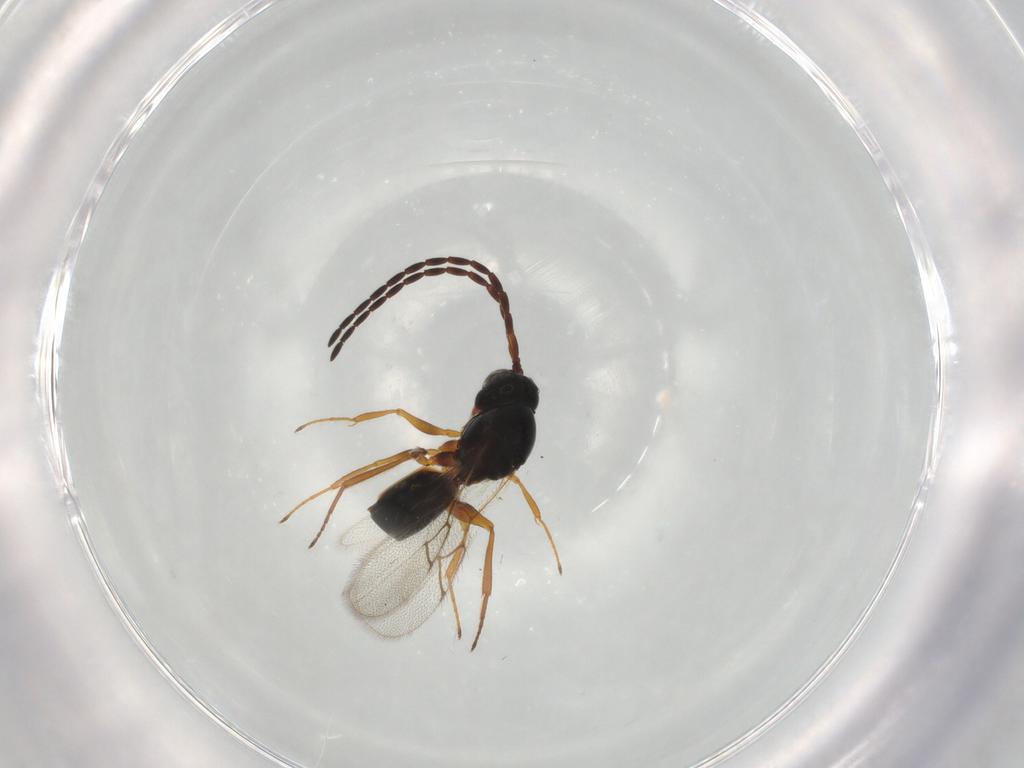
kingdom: Animalia
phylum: Arthropoda
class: Insecta
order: Hymenoptera
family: Figitidae
